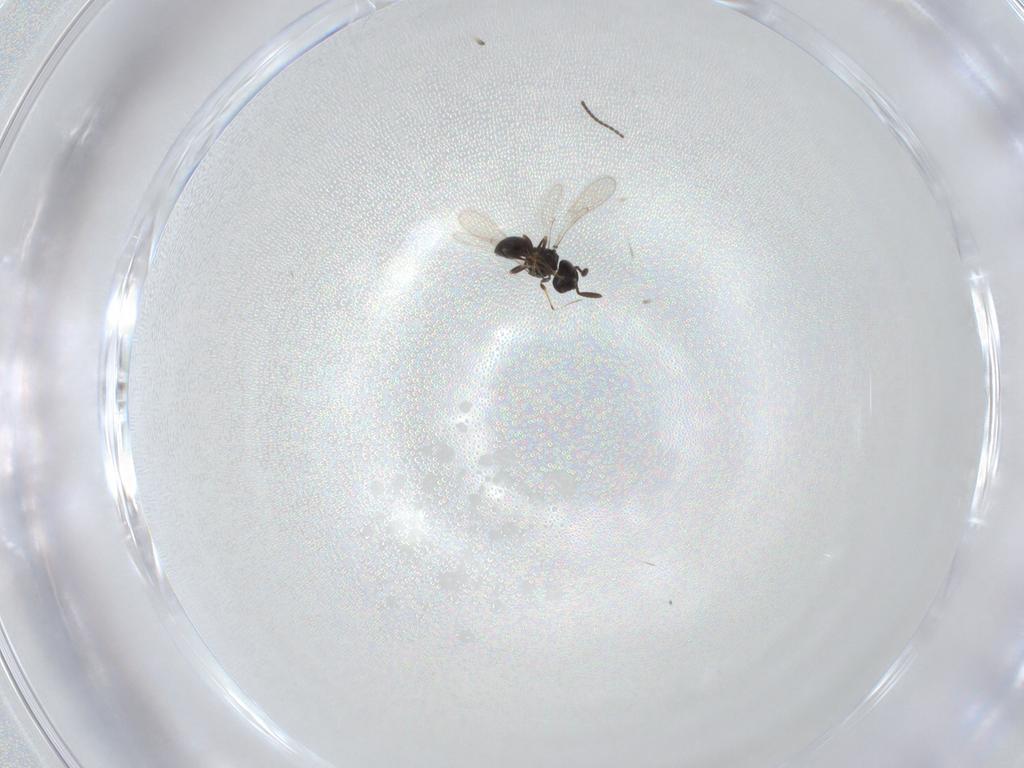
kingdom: Animalia
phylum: Arthropoda
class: Insecta
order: Hymenoptera
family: Scelionidae
